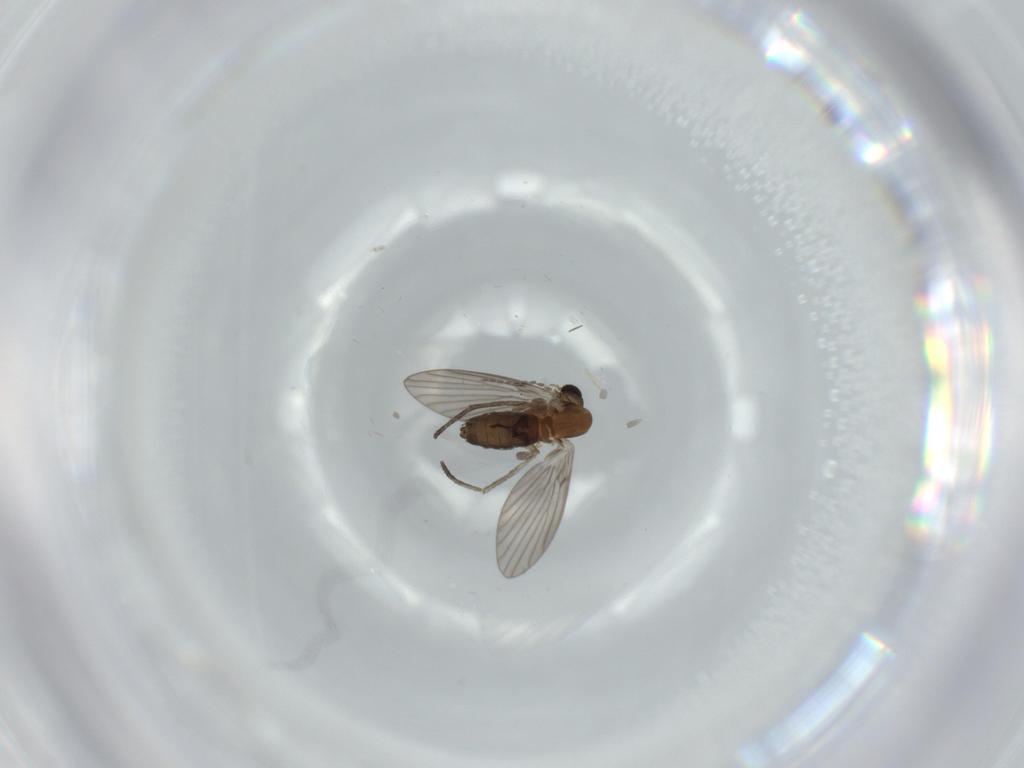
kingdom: Animalia
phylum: Arthropoda
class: Insecta
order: Diptera
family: Psychodidae
